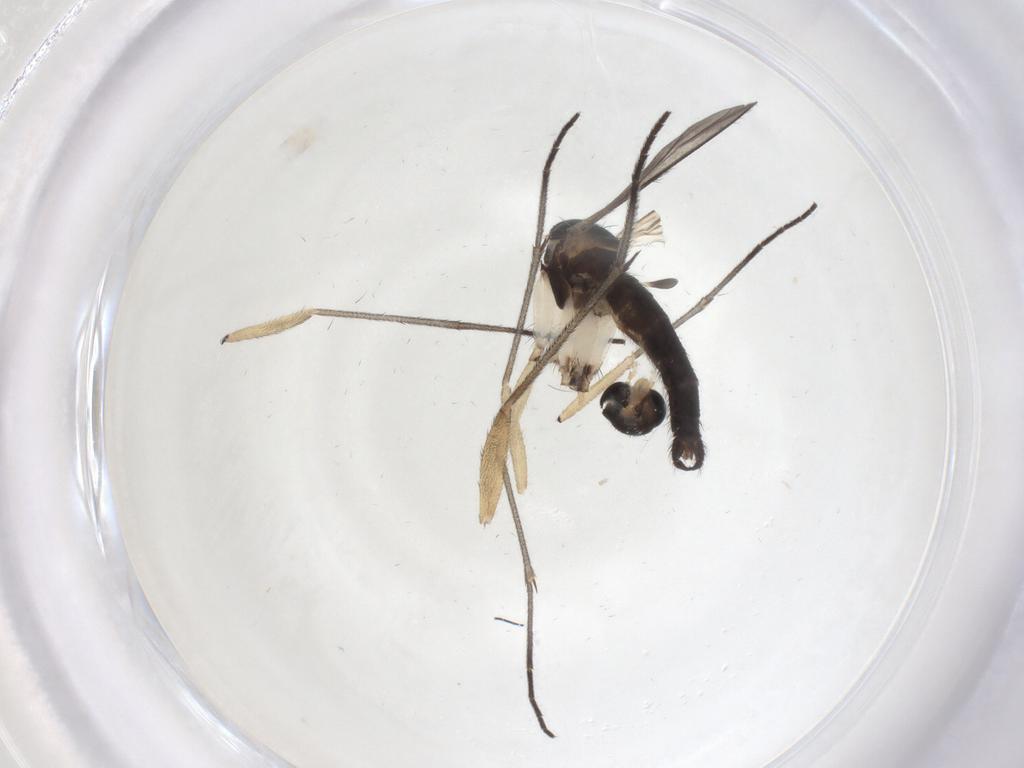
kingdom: Animalia
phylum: Arthropoda
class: Insecta
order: Diptera
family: Sciaridae
